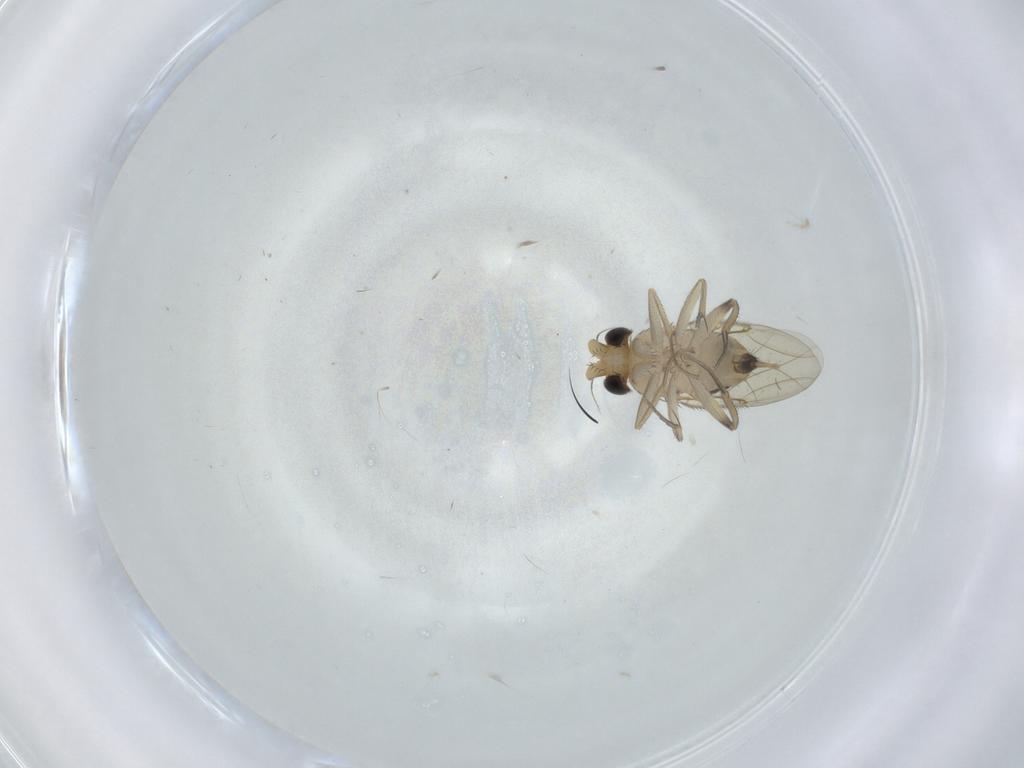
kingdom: Animalia
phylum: Arthropoda
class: Insecta
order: Diptera
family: Phoridae
